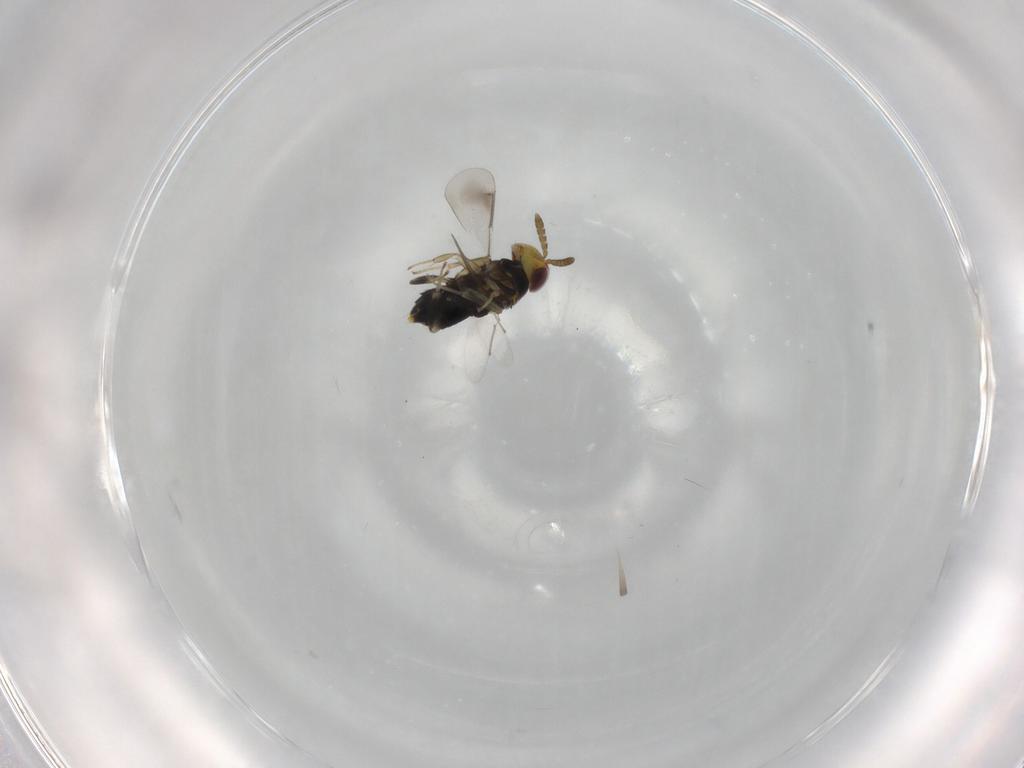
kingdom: Animalia
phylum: Arthropoda
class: Insecta
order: Hymenoptera
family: Aphelinidae
